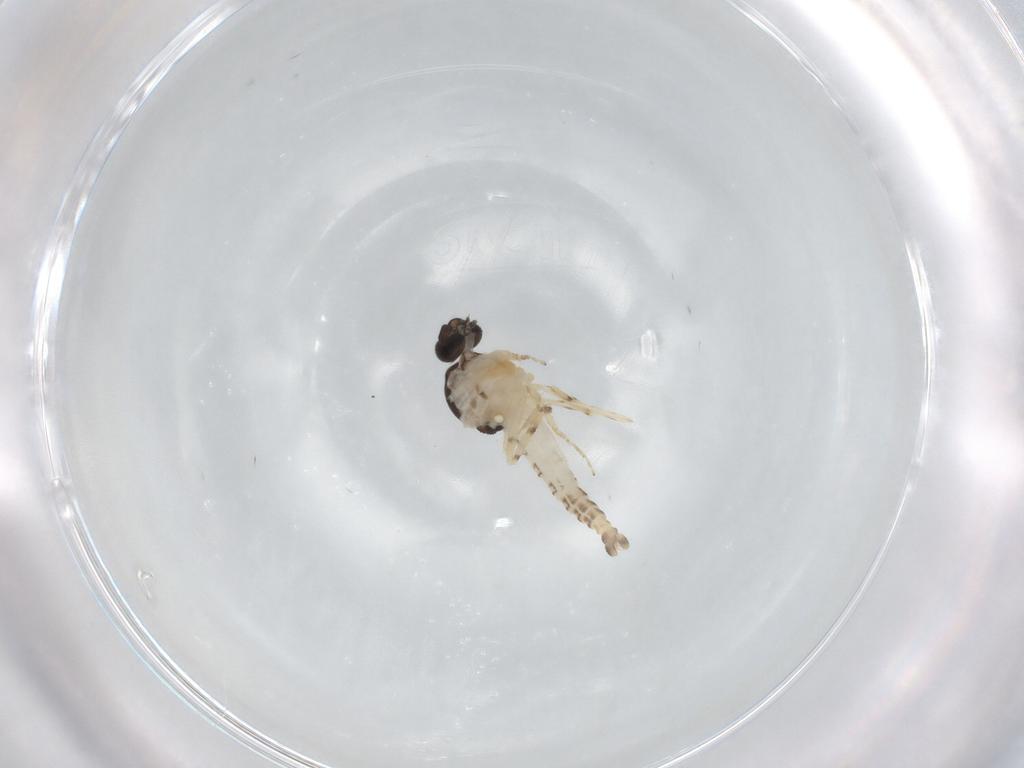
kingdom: Animalia
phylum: Arthropoda
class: Insecta
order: Diptera
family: Ceratopogonidae
